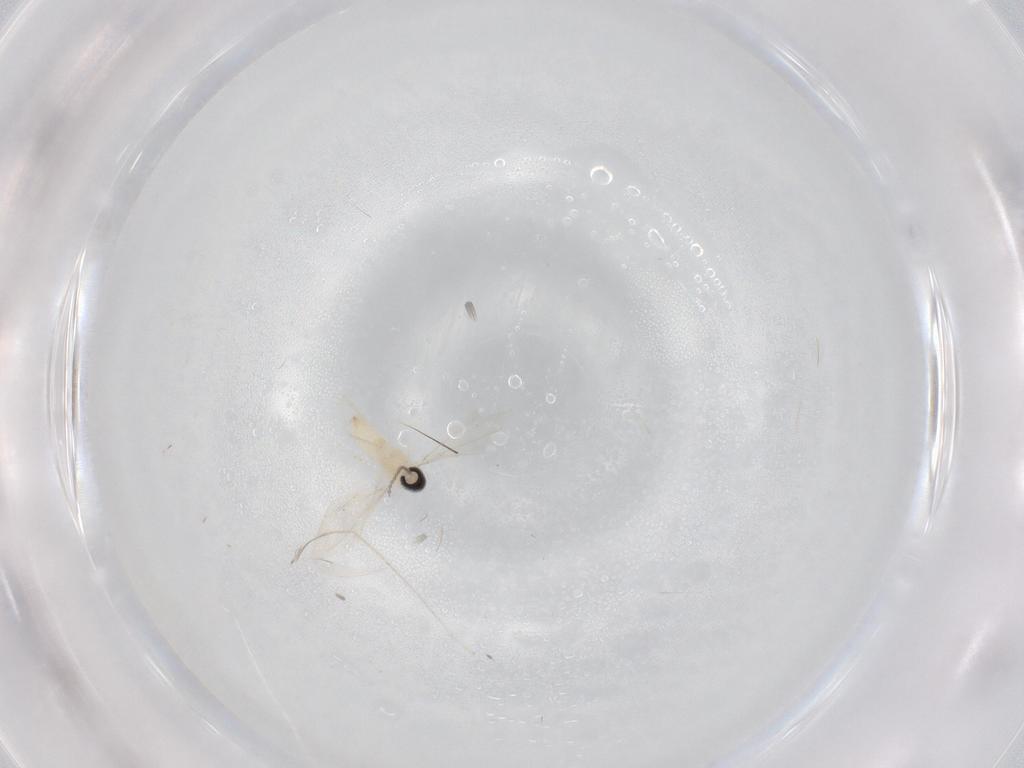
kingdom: Animalia
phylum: Arthropoda
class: Insecta
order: Diptera
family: Cecidomyiidae
